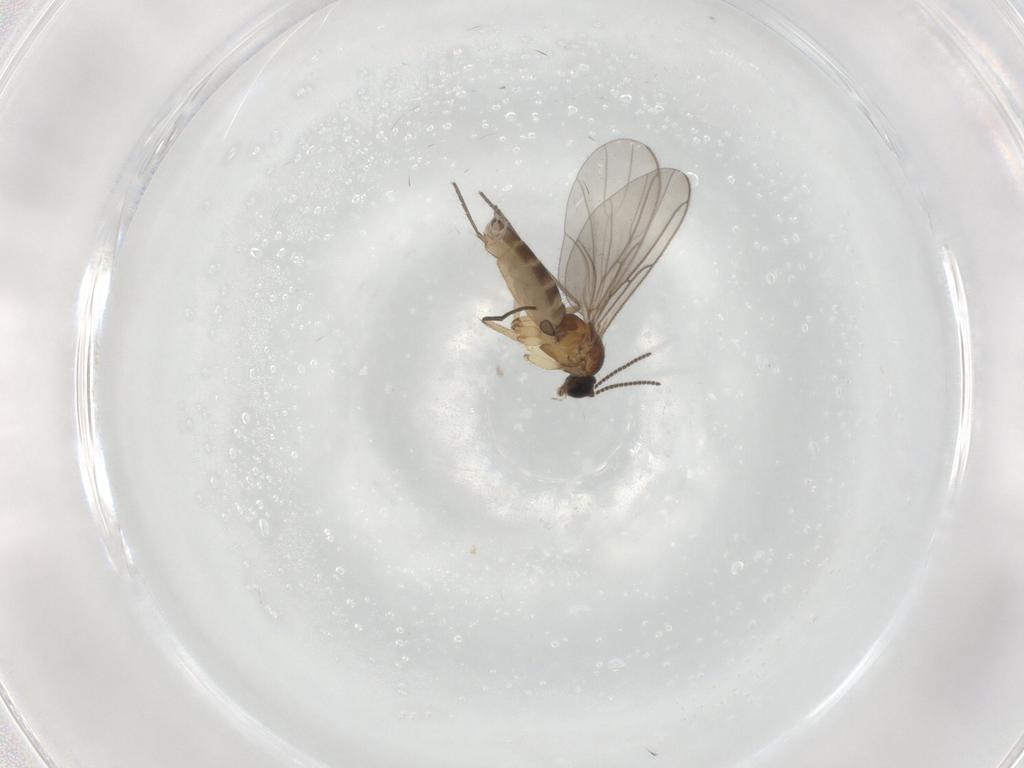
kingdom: Animalia
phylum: Arthropoda
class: Insecta
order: Diptera
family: Sciaridae
